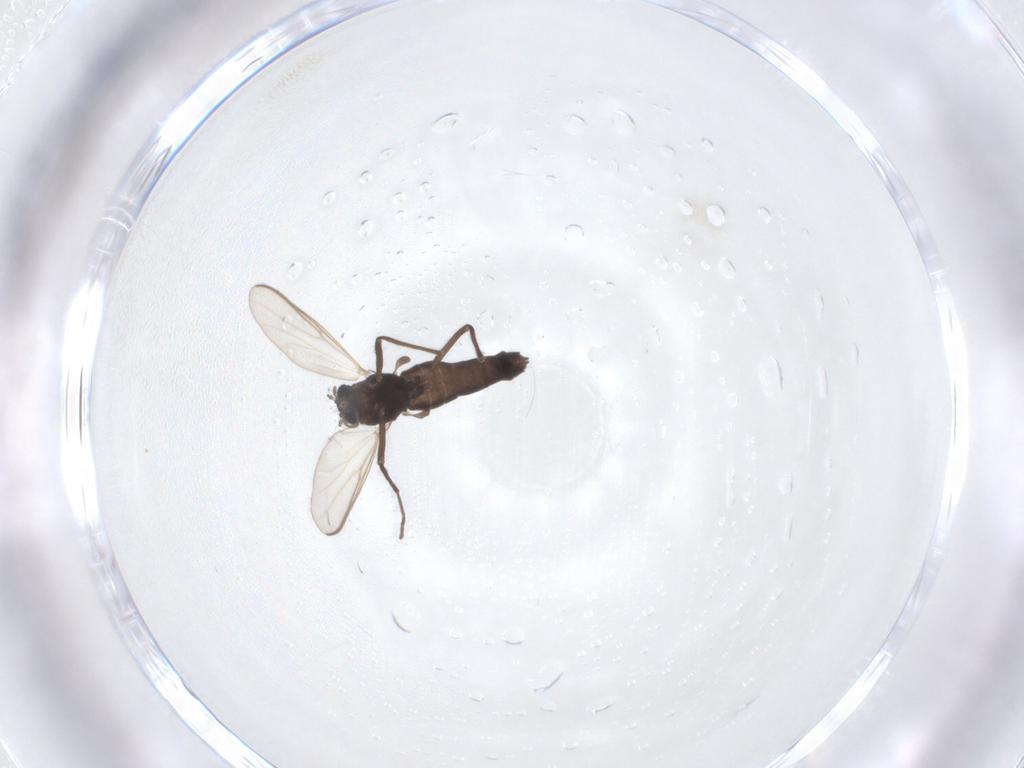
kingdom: Animalia
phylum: Arthropoda
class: Insecta
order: Diptera
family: Chironomidae
